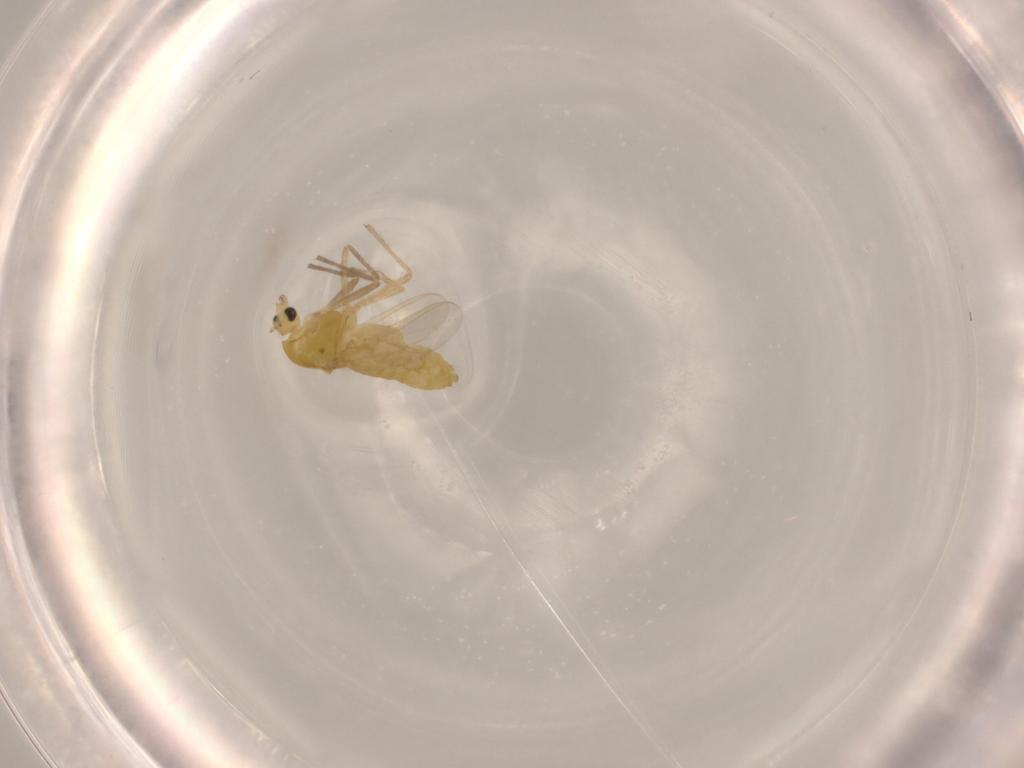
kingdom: Animalia
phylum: Arthropoda
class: Insecta
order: Diptera
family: Chironomidae
